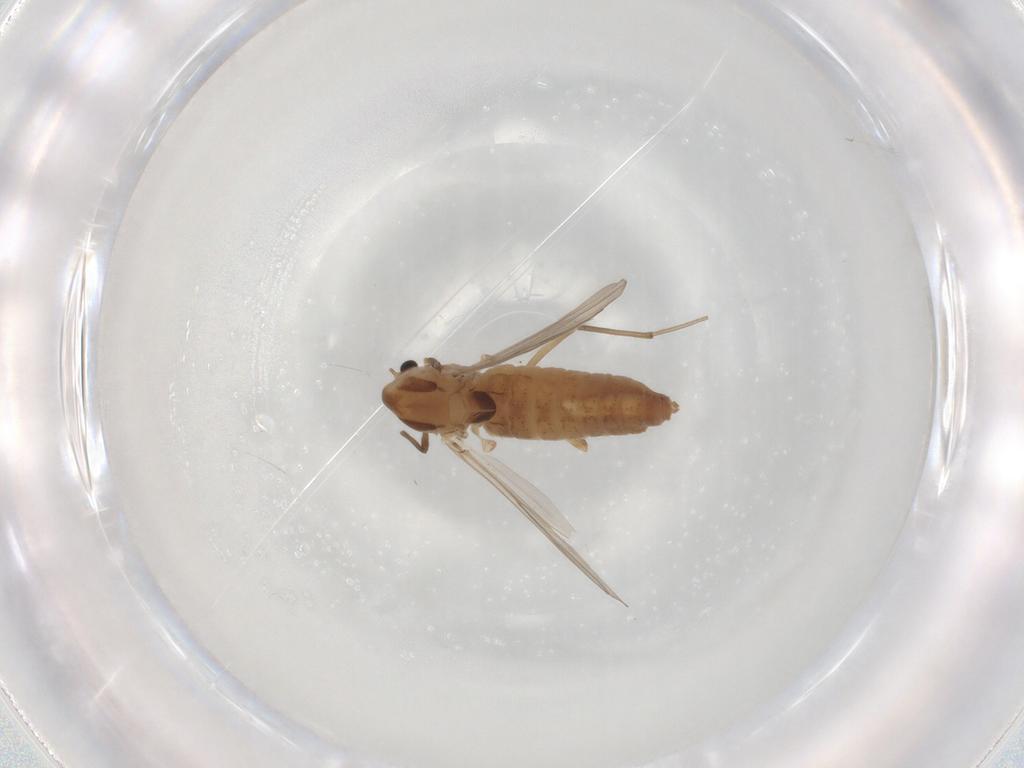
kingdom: Animalia
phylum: Arthropoda
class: Insecta
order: Diptera
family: Chironomidae
